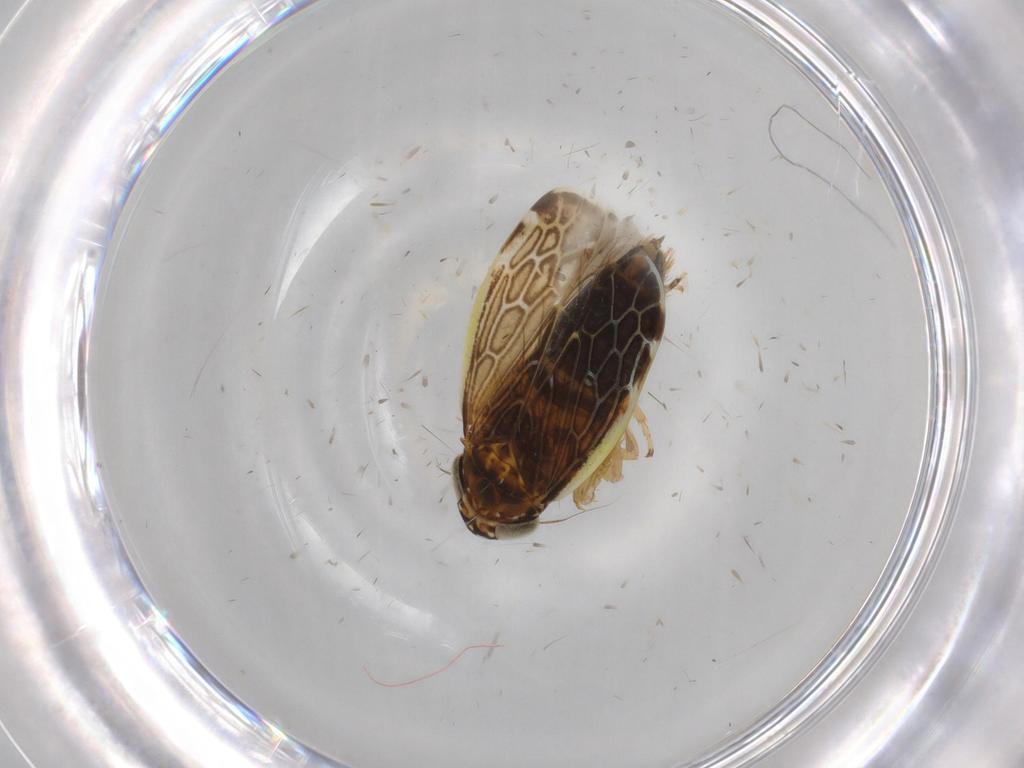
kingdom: Animalia
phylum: Arthropoda
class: Insecta
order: Hemiptera
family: Cicadellidae
